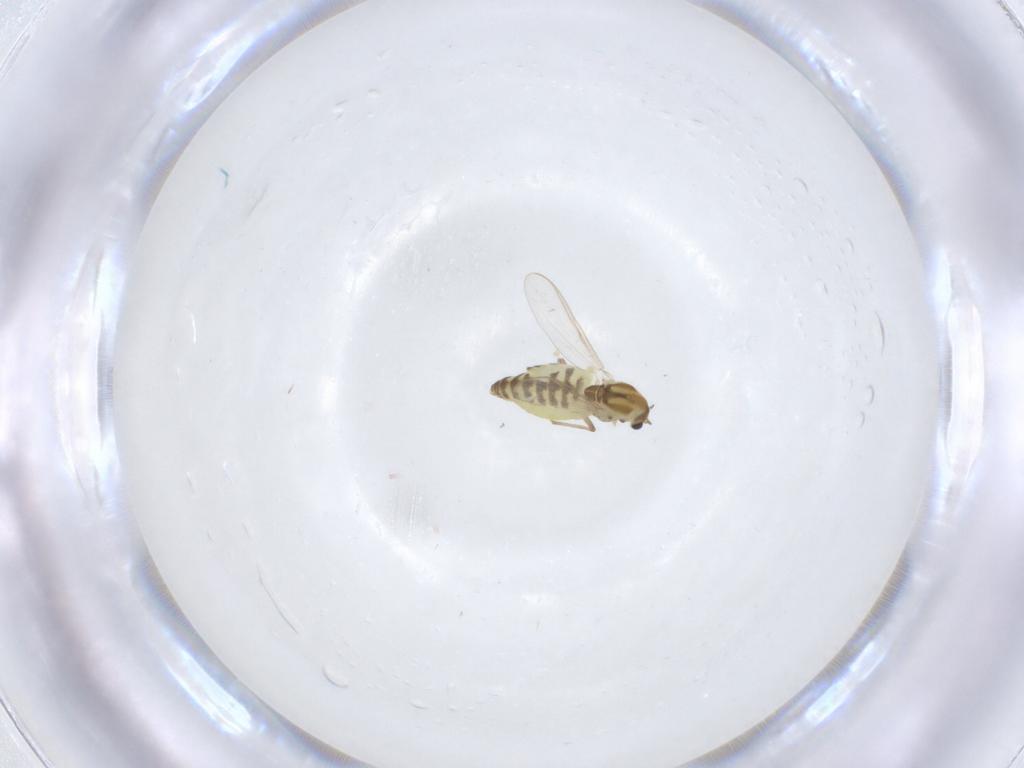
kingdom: Animalia
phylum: Arthropoda
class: Insecta
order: Diptera
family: Chironomidae
